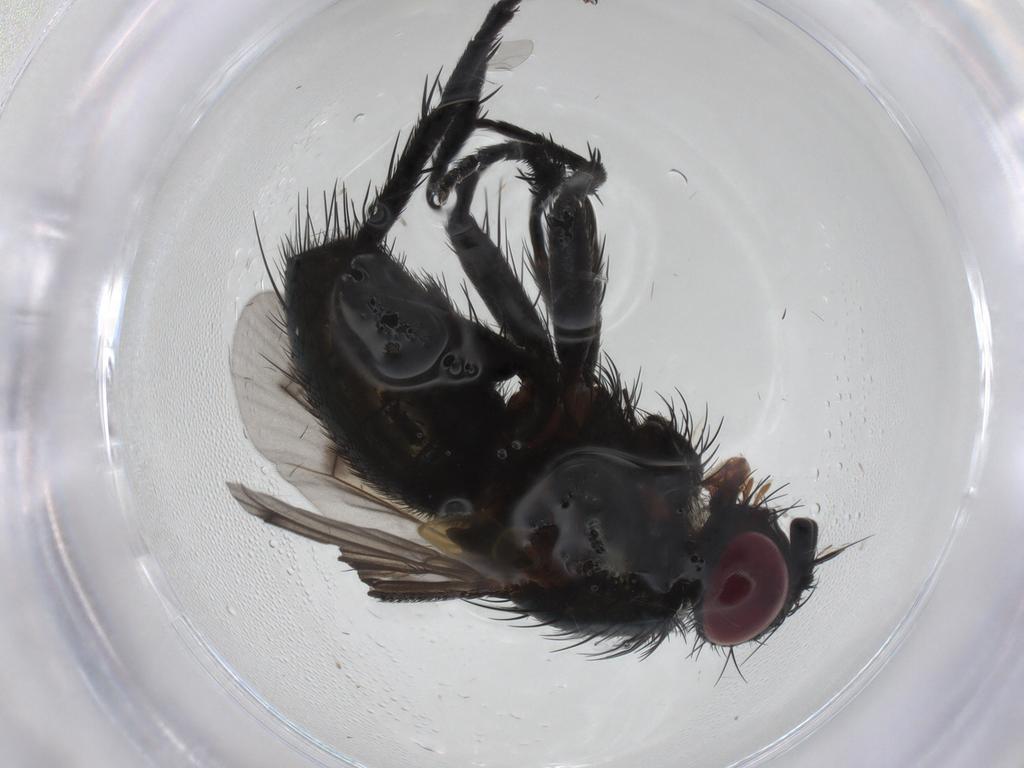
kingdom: Animalia
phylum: Arthropoda
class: Insecta
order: Diptera
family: Tachinidae
